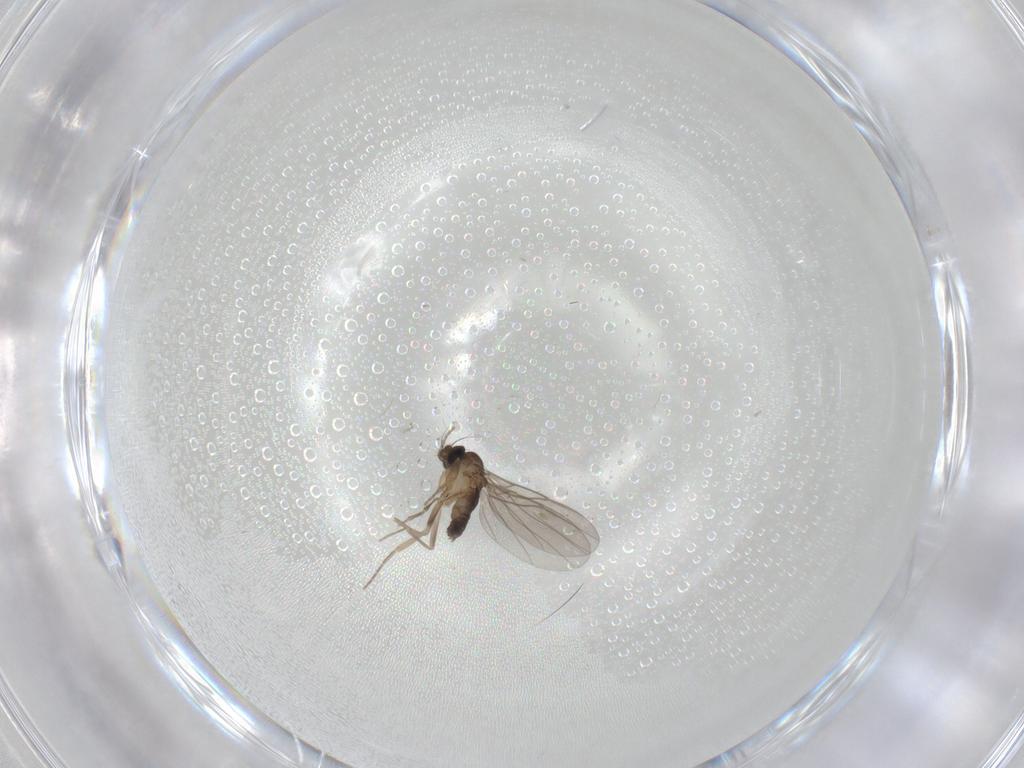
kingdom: Animalia
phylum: Arthropoda
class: Insecta
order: Diptera
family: Phoridae
